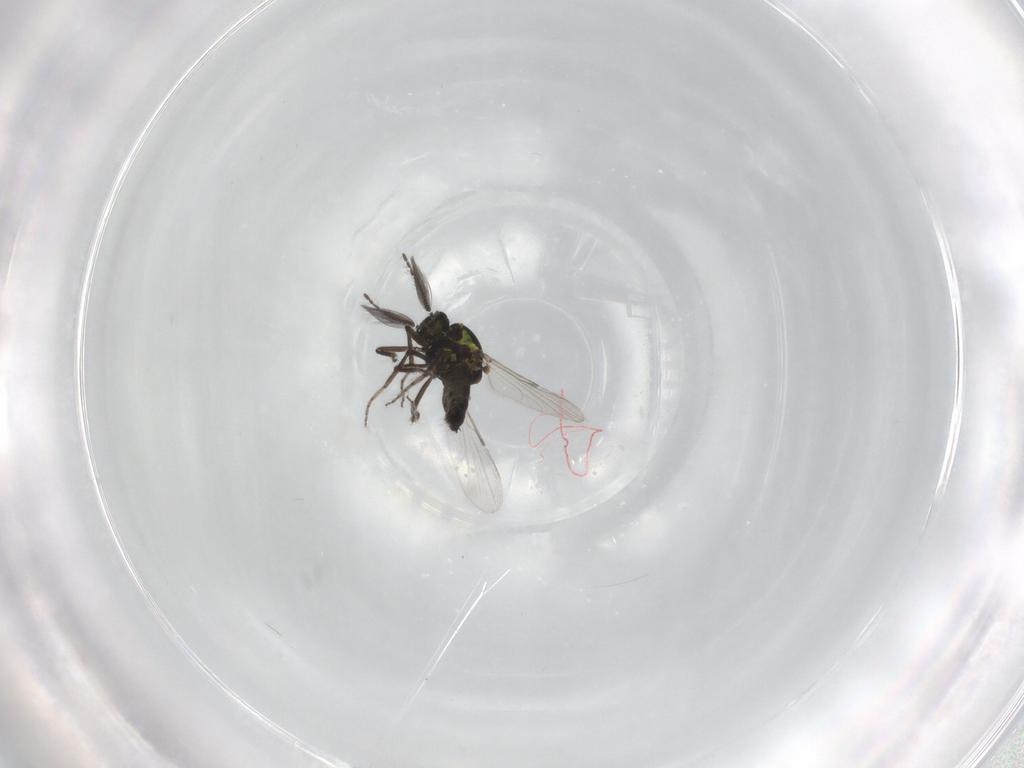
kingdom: Animalia
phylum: Arthropoda
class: Insecta
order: Diptera
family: Ceratopogonidae
